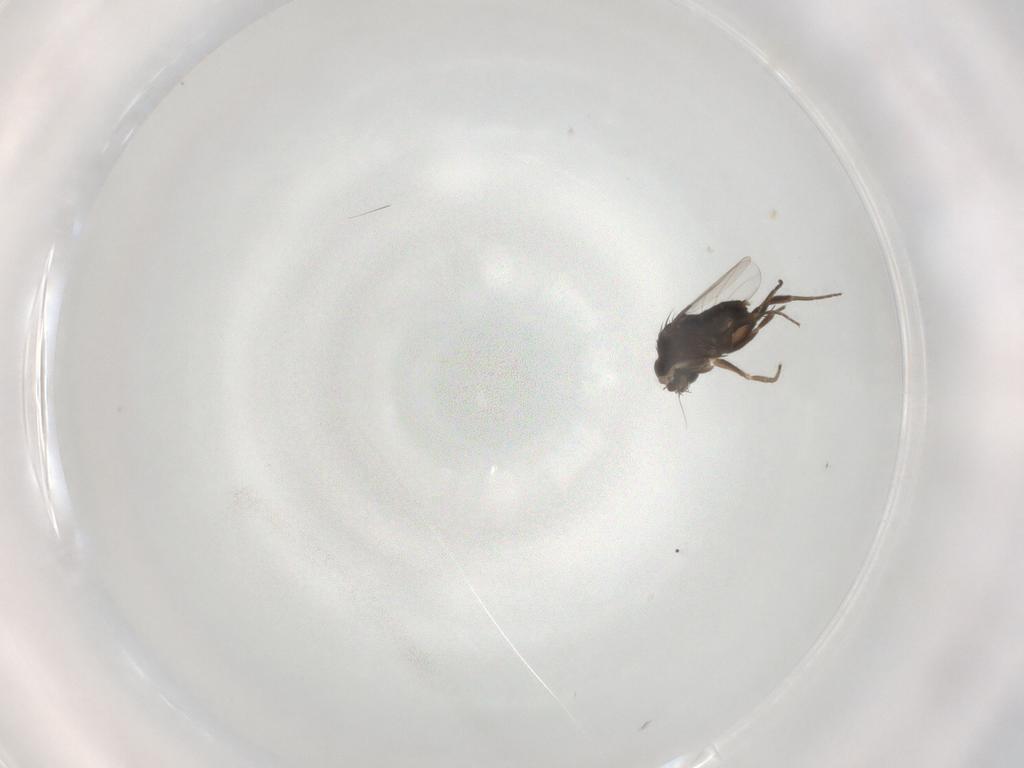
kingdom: Animalia
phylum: Arthropoda
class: Insecta
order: Diptera
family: Phoridae
